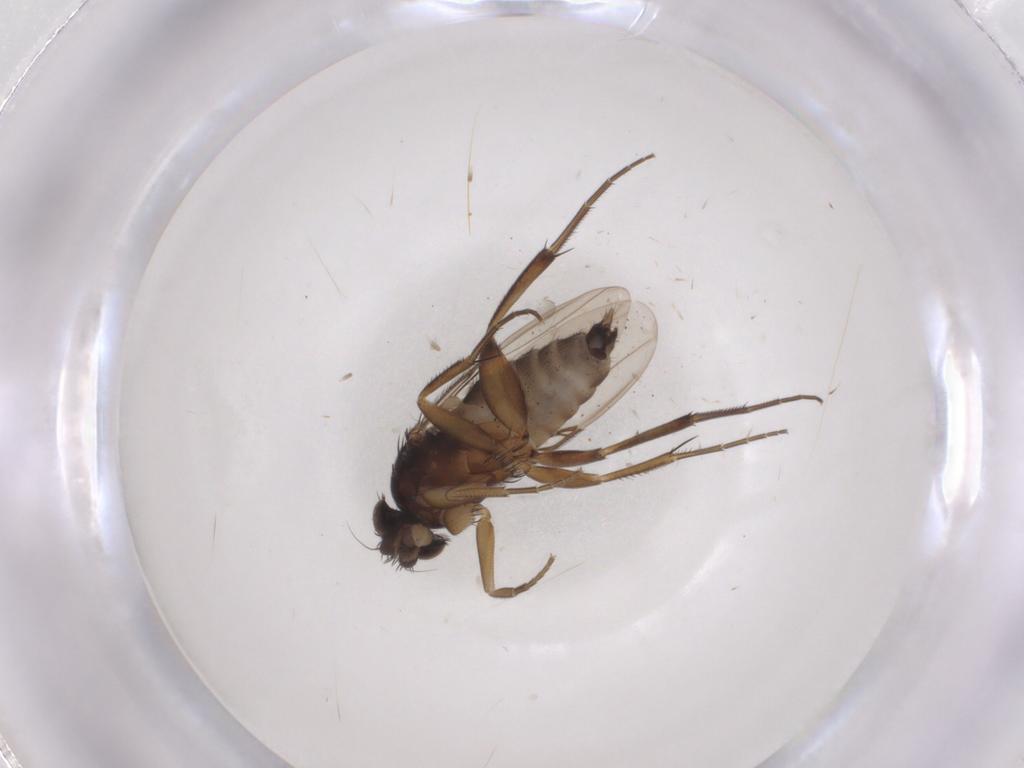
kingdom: Animalia
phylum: Arthropoda
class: Insecta
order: Diptera
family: Phoridae
